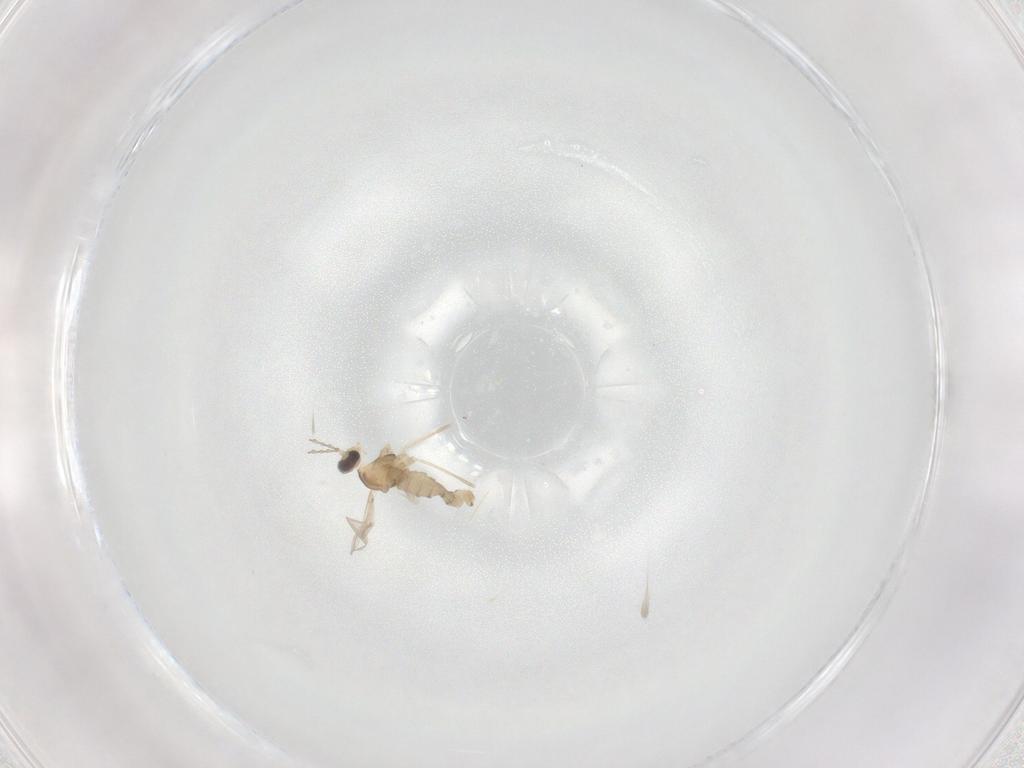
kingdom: Animalia
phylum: Arthropoda
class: Insecta
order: Diptera
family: Cecidomyiidae
